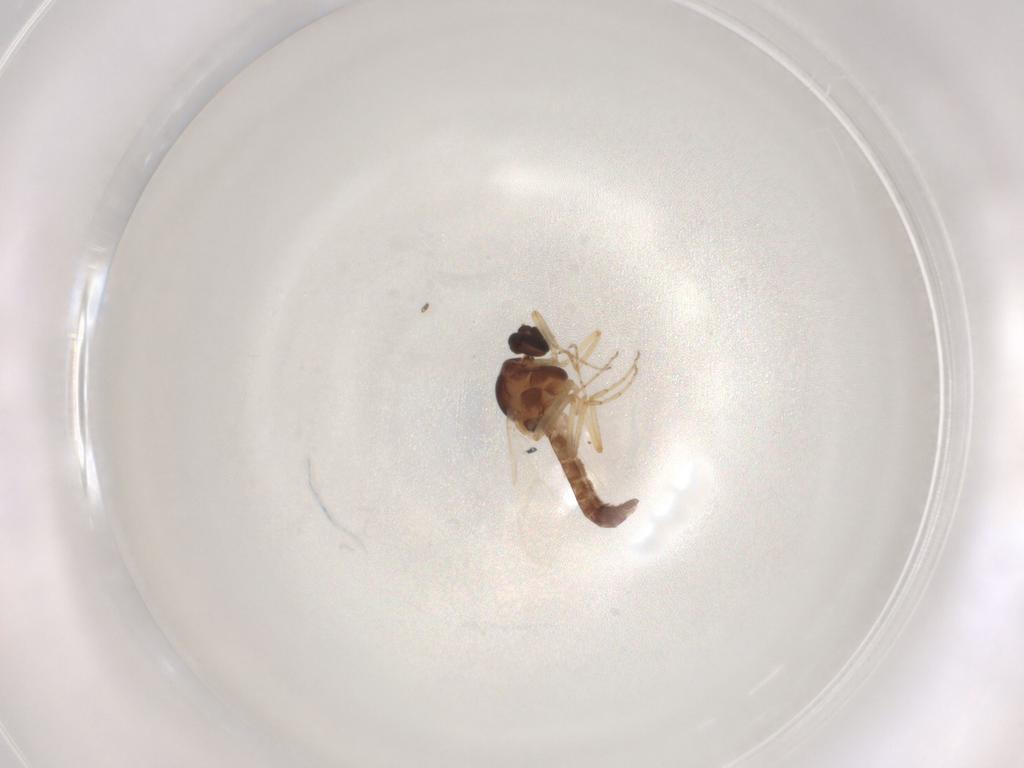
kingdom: Animalia
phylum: Arthropoda
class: Insecta
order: Diptera
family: Ceratopogonidae
